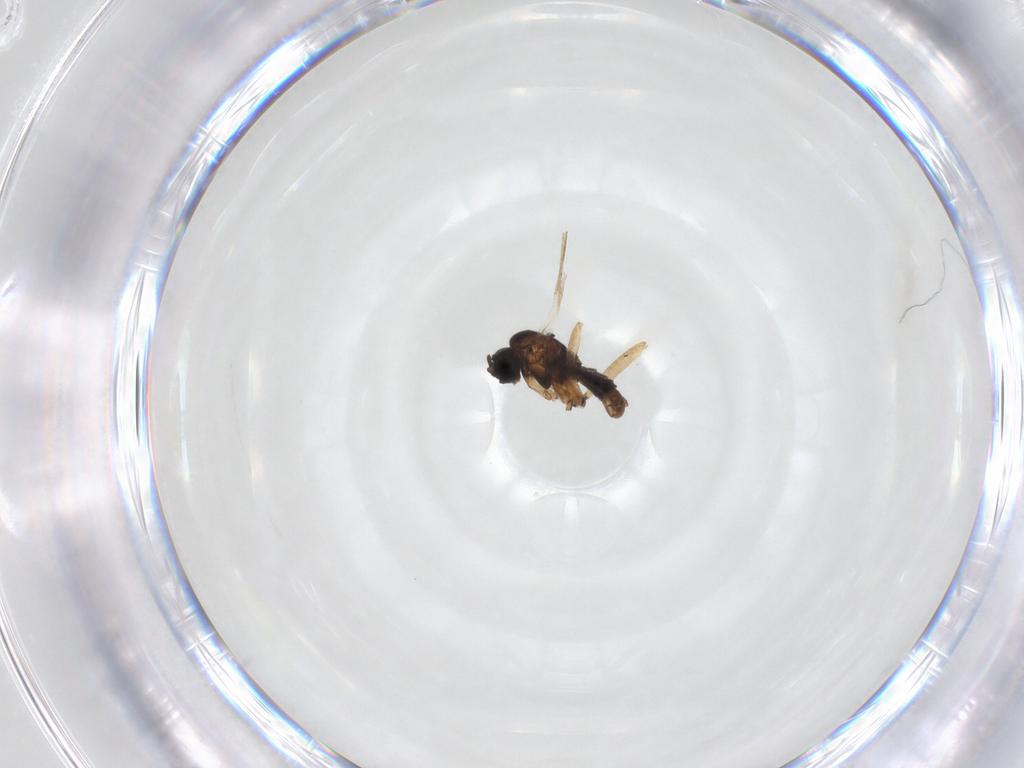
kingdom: Animalia
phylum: Arthropoda
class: Insecta
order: Diptera
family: Sciaridae
